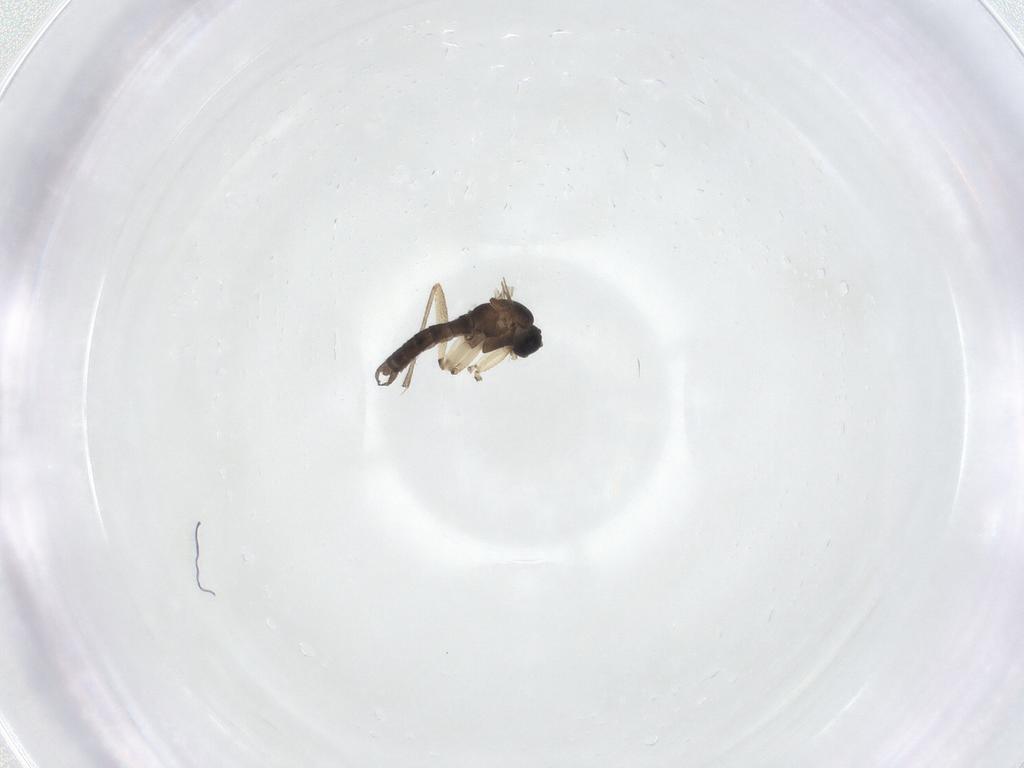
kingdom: Animalia
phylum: Arthropoda
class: Insecta
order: Diptera
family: Sciaridae
